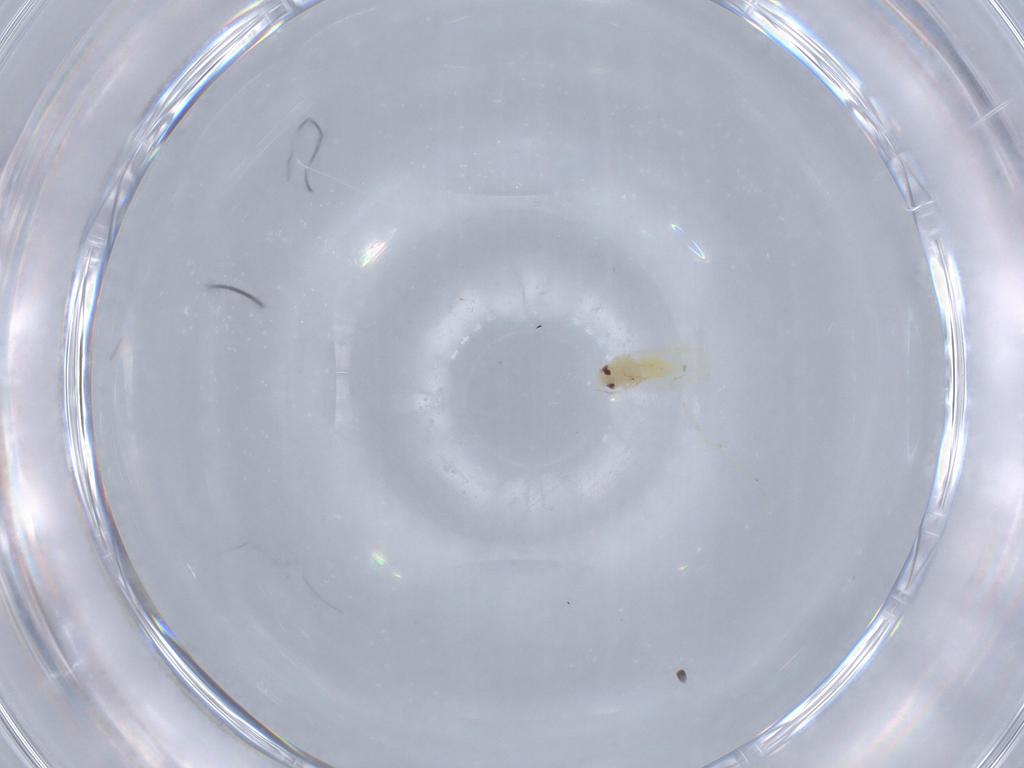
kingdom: Animalia
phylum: Arthropoda
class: Insecta
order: Hemiptera
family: Aleyrodidae
